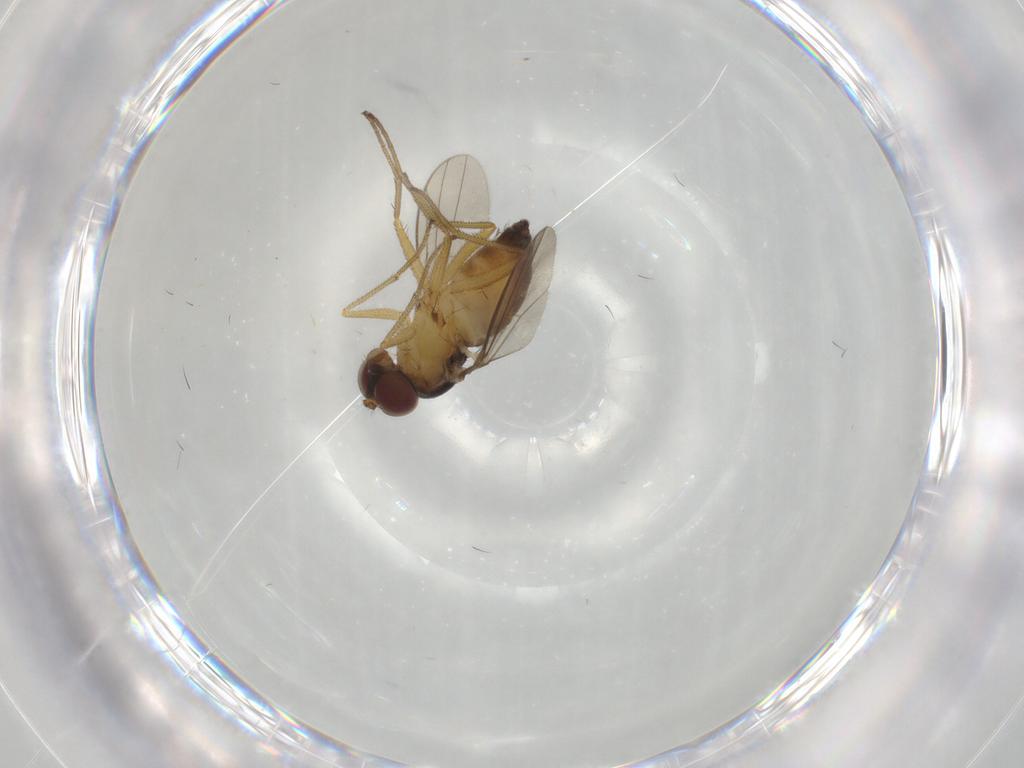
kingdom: Animalia
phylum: Arthropoda
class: Insecta
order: Diptera
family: Dolichopodidae
